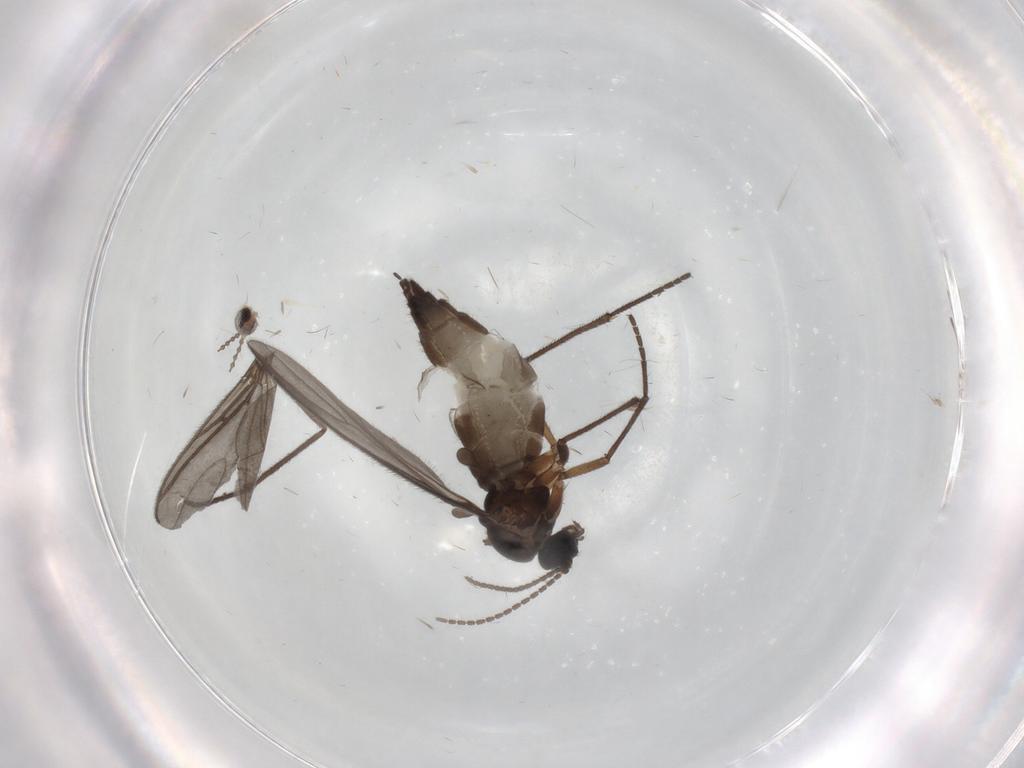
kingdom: Animalia
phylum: Arthropoda
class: Insecta
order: Diptera
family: Sciaridae
